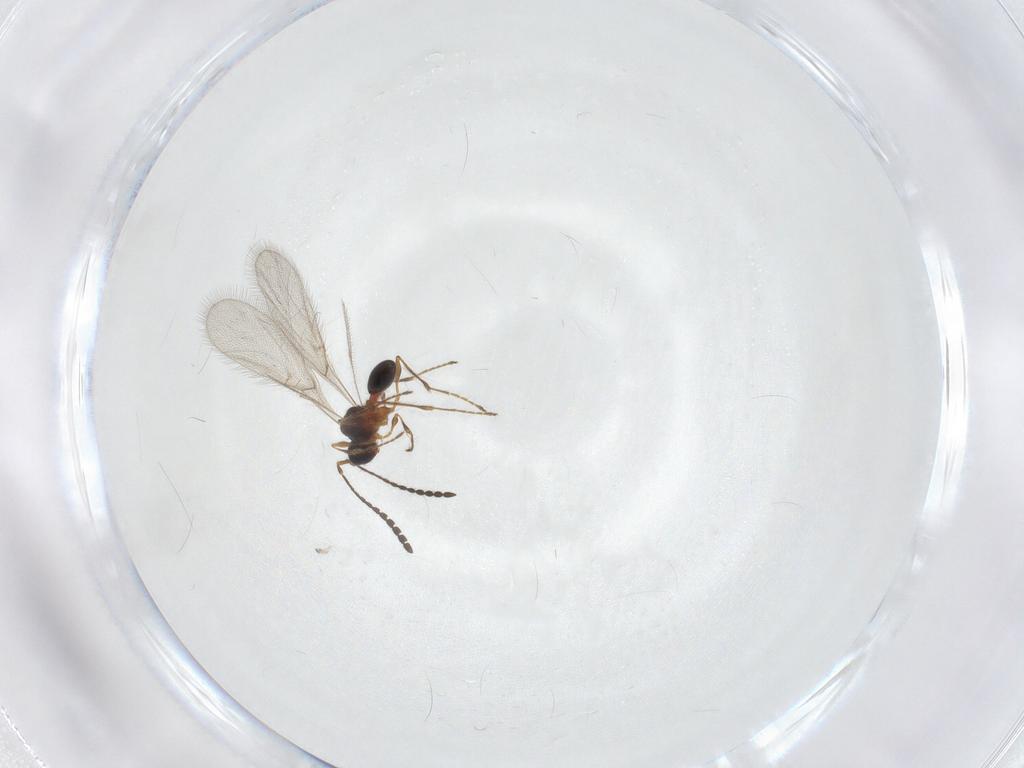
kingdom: Animalia
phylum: Arthropoda
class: Insecta
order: Hymenoptera
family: Diapriidae
